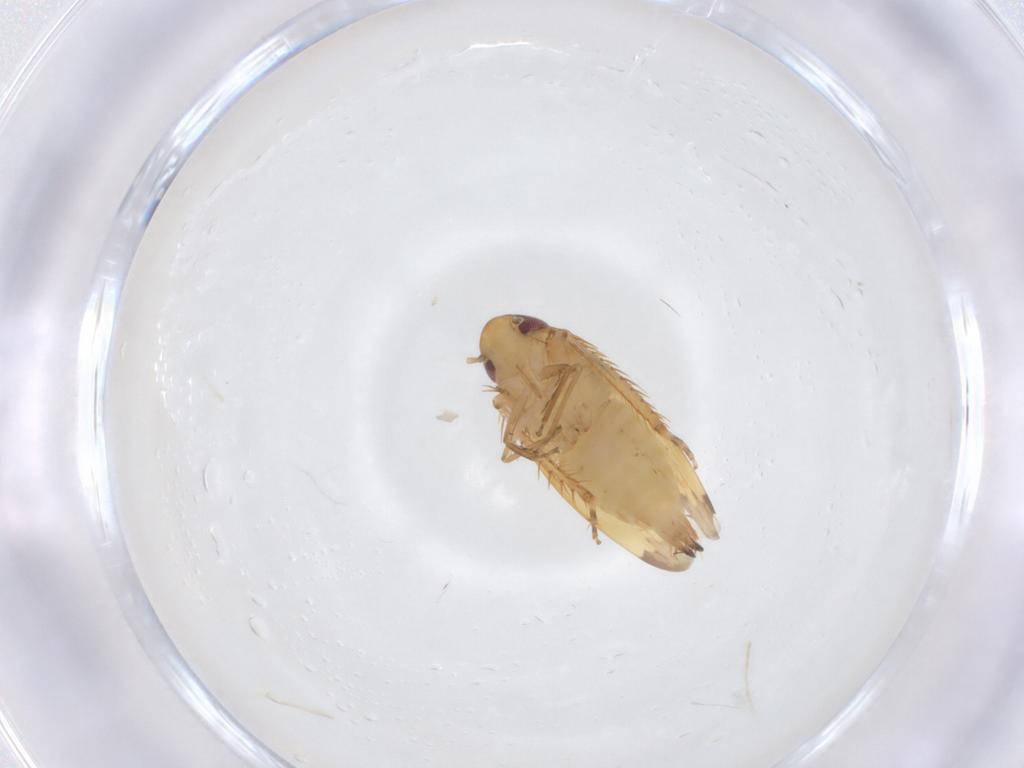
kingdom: Animalia
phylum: Arthropoda
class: Insecta
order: Hemiptera
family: Cicadellidae
